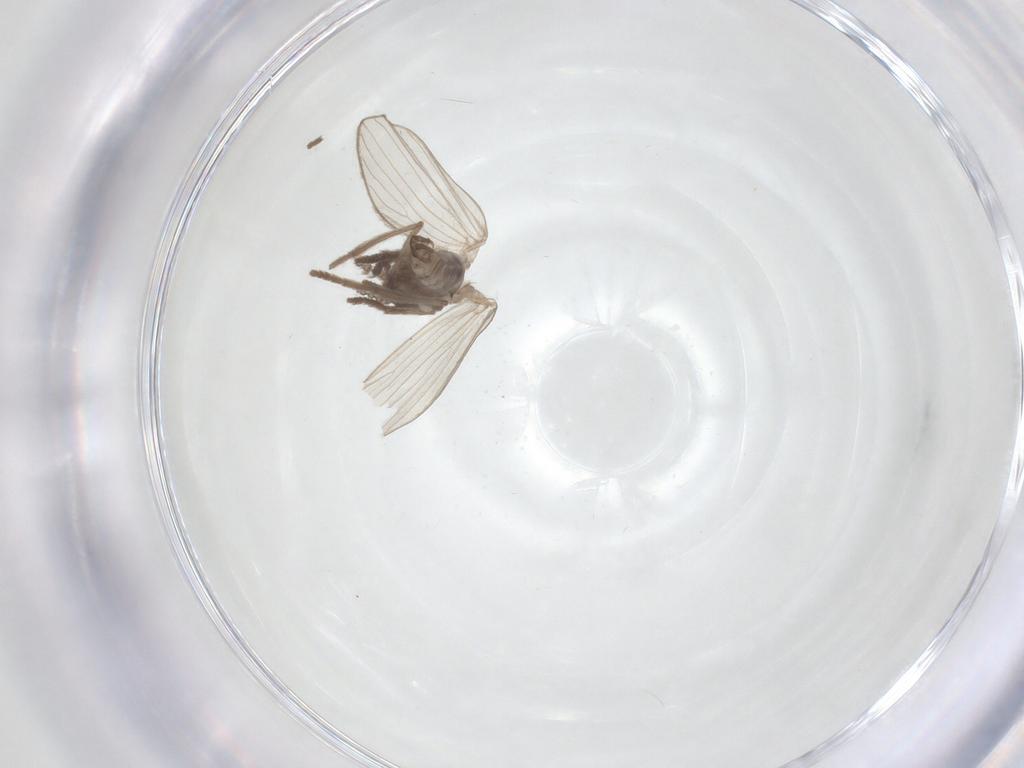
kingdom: Animalia
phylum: Arthropoda
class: Insecta
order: Diptera
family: Psychodidae
